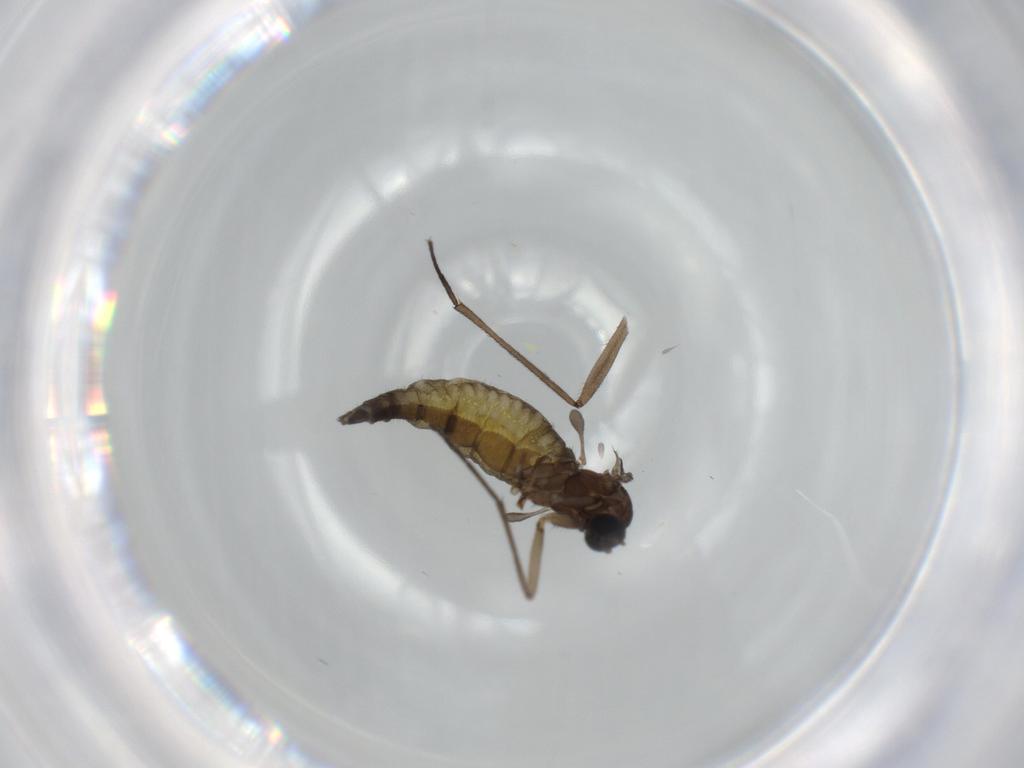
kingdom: Animalia
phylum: Arthropoda
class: Insecta
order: Diptera
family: Sciaridae
